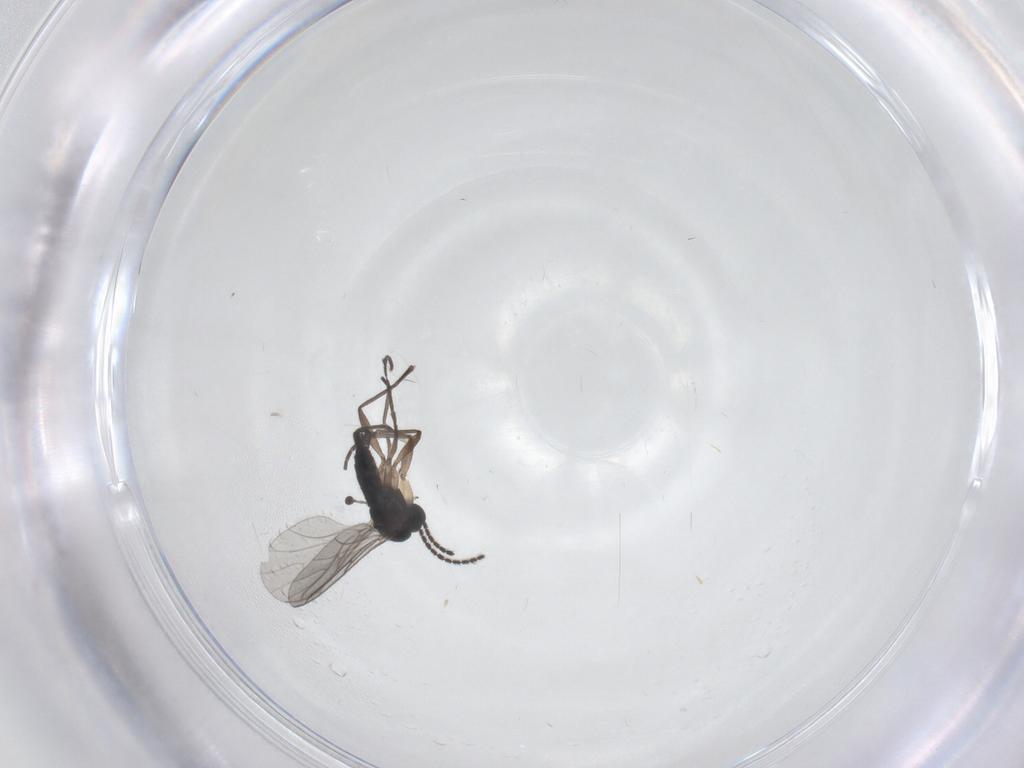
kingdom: Animalia
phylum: Arthropoda
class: Insecta
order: Diptera
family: Sciaridae
